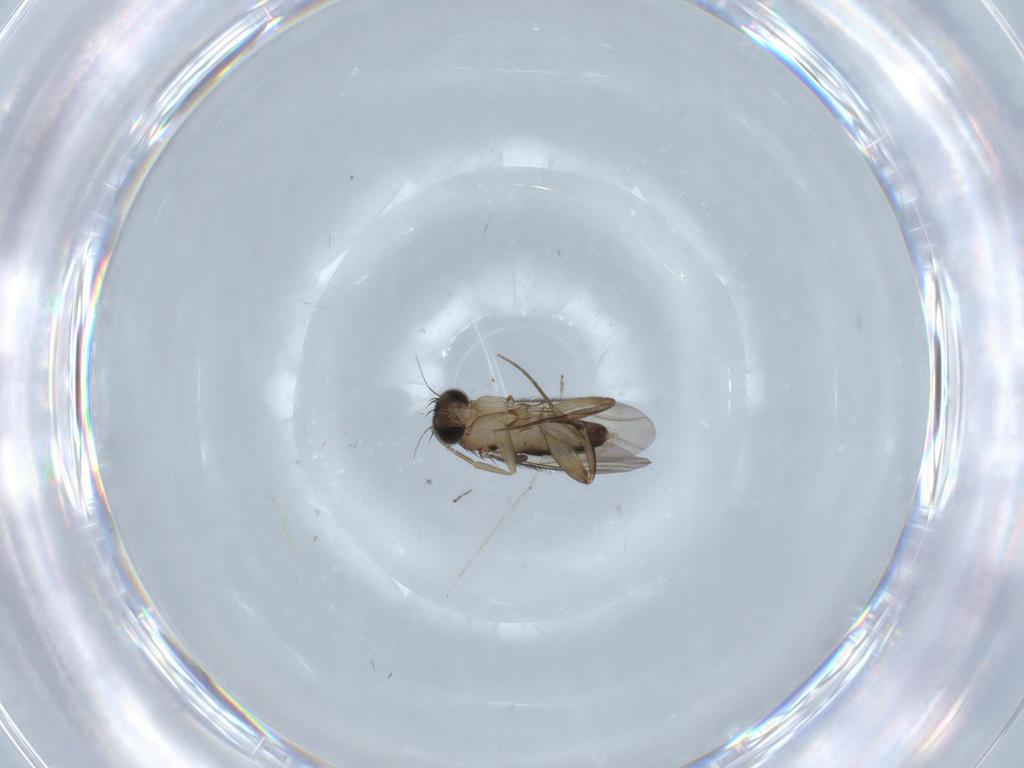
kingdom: Animalia
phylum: Arthropoda
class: Insecta
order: Diptera
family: Phoridae
